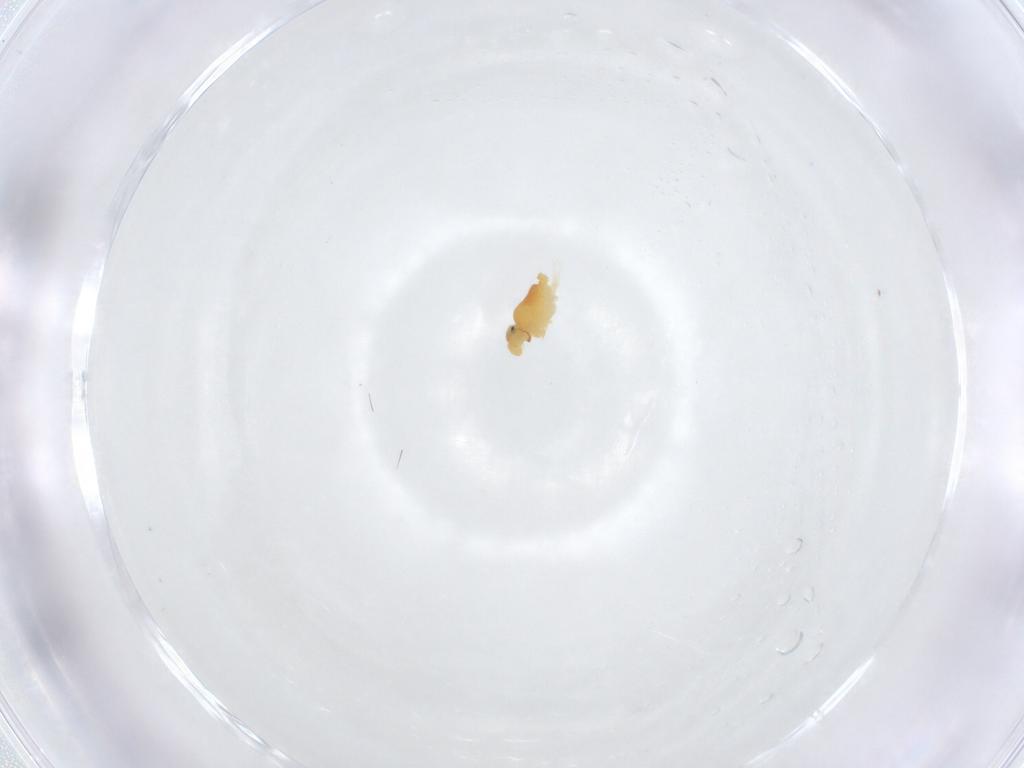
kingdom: Animalia
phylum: Arthropoda
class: Collembola
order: Symphypleona
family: Bourletiellidae
